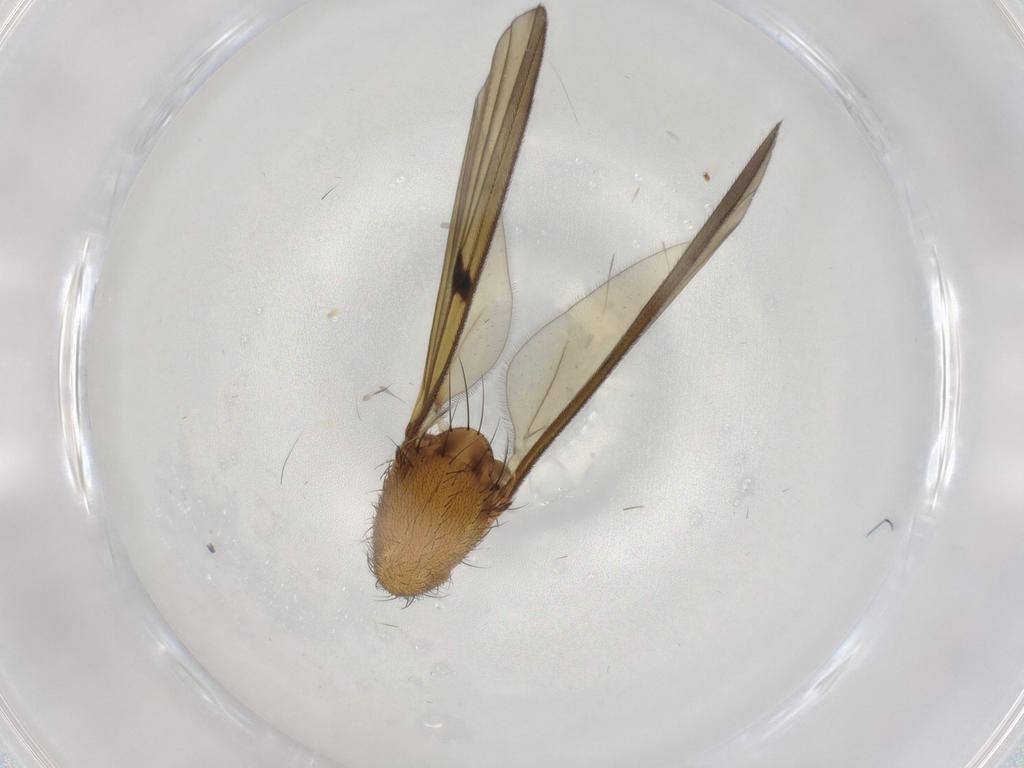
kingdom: Animalia
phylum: Arthropoda
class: Insecta
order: Diptera
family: Mycetophilidae
